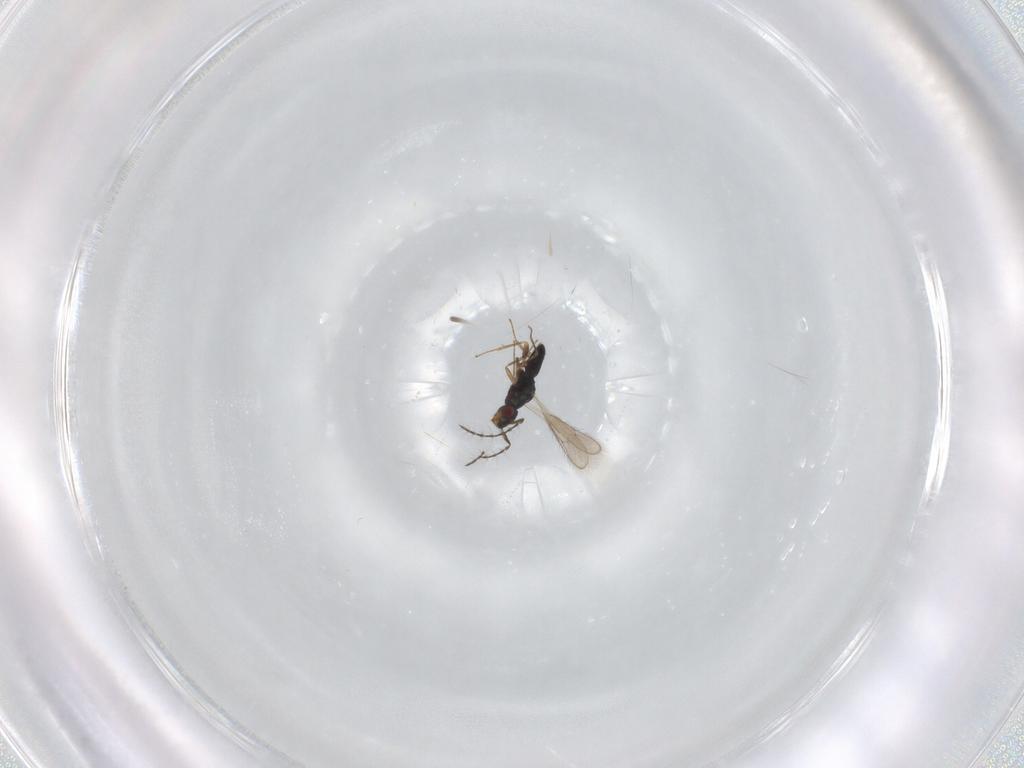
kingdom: Animalia
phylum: Arthropoda
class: Insecta
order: Hymenoptera
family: Pteromalidae
